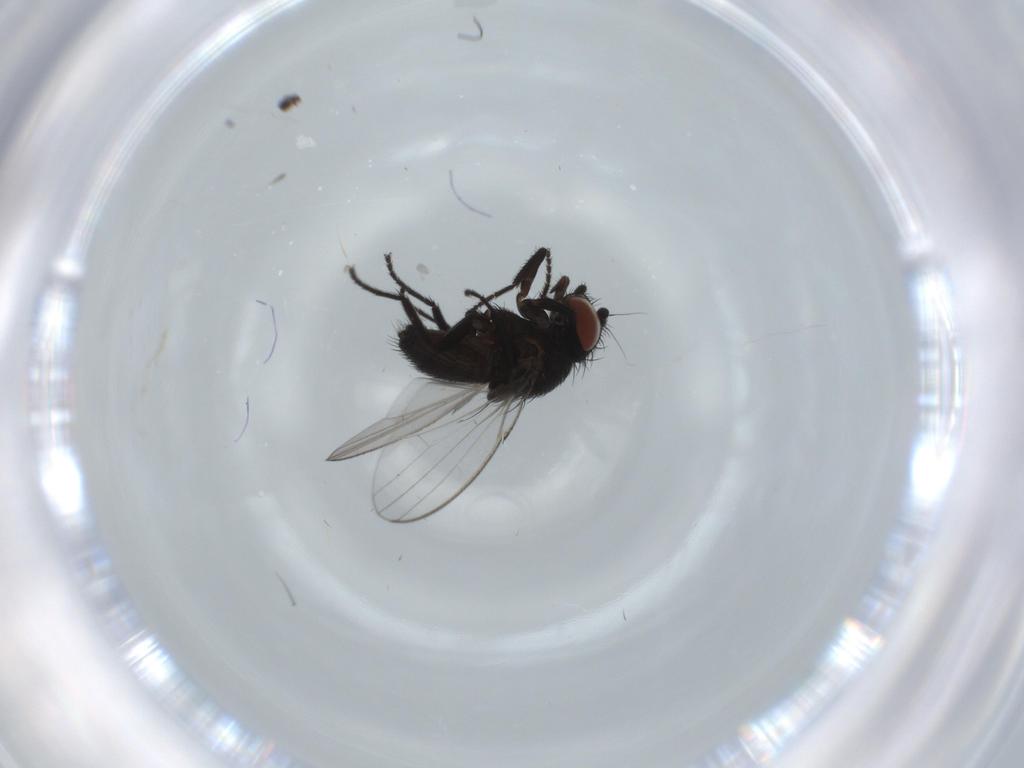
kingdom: Animalia
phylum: Arthropoda
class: Insecta
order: Diptera
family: Milichiidae
